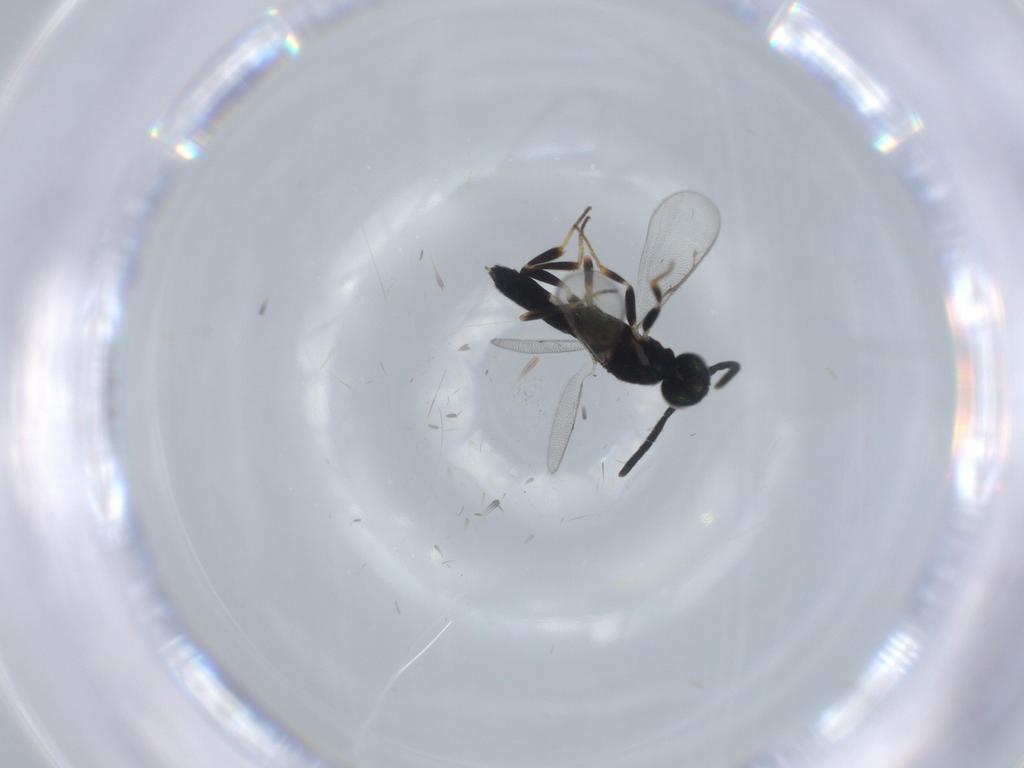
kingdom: Animalia
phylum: Arthropoda
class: Insecta
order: Hymenoptera
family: Eupelmidae
